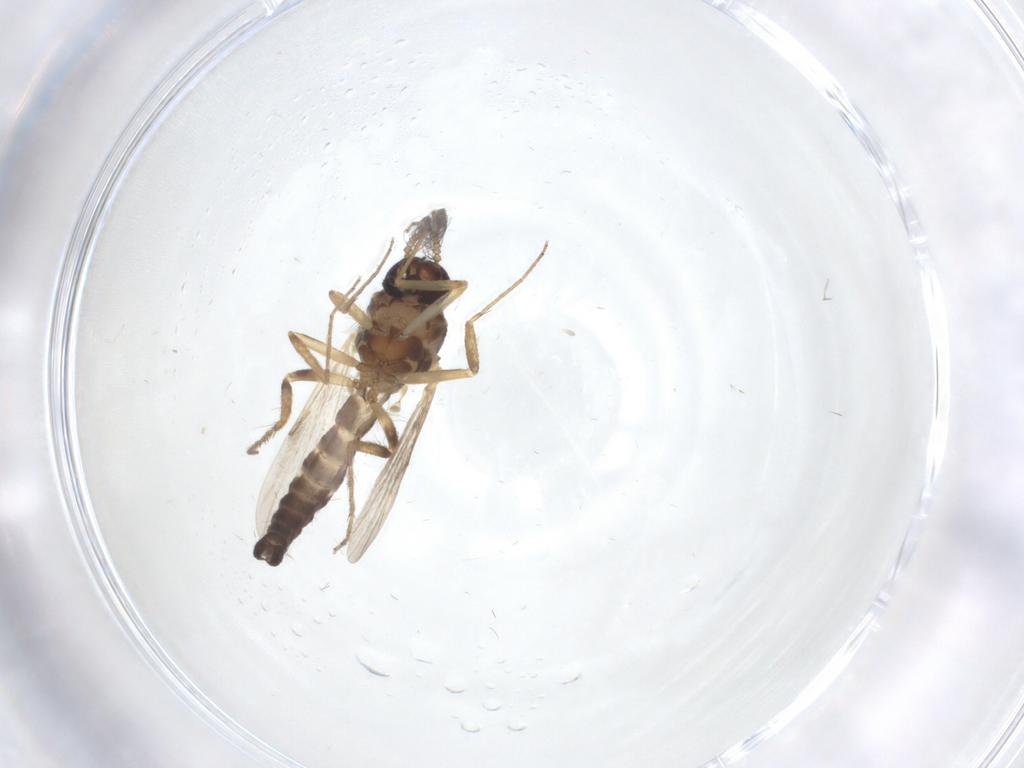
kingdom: Animalia
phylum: Arthropoda
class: Insecta
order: Diptera
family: Ceratopogonidae
